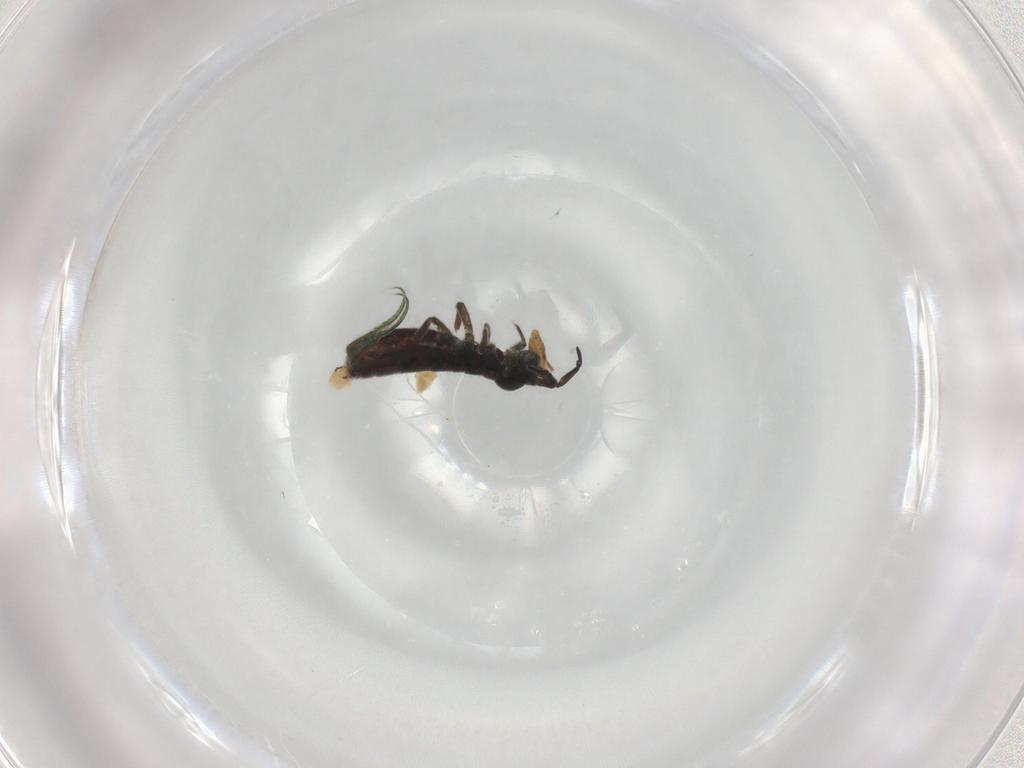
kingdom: Animalia
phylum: Arthropoda
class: Collembola
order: Entomobryomorpha
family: Isotomidae
